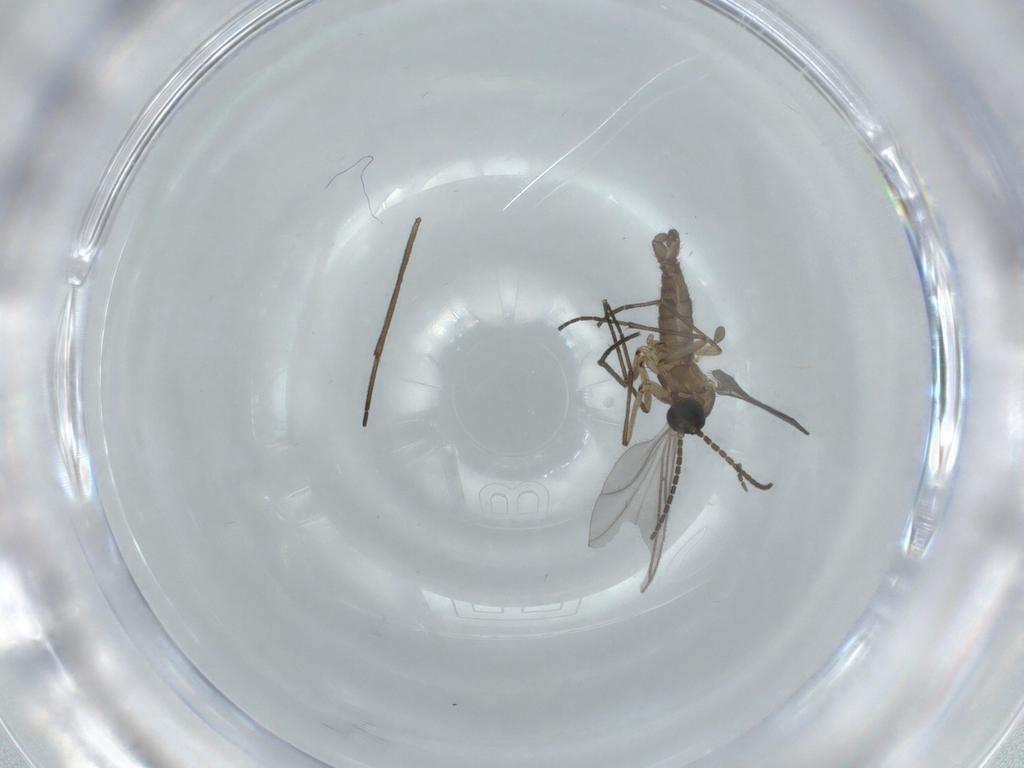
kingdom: Animalia
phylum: Arthropoda
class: Insecta
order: Diptera
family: Sciaridae
